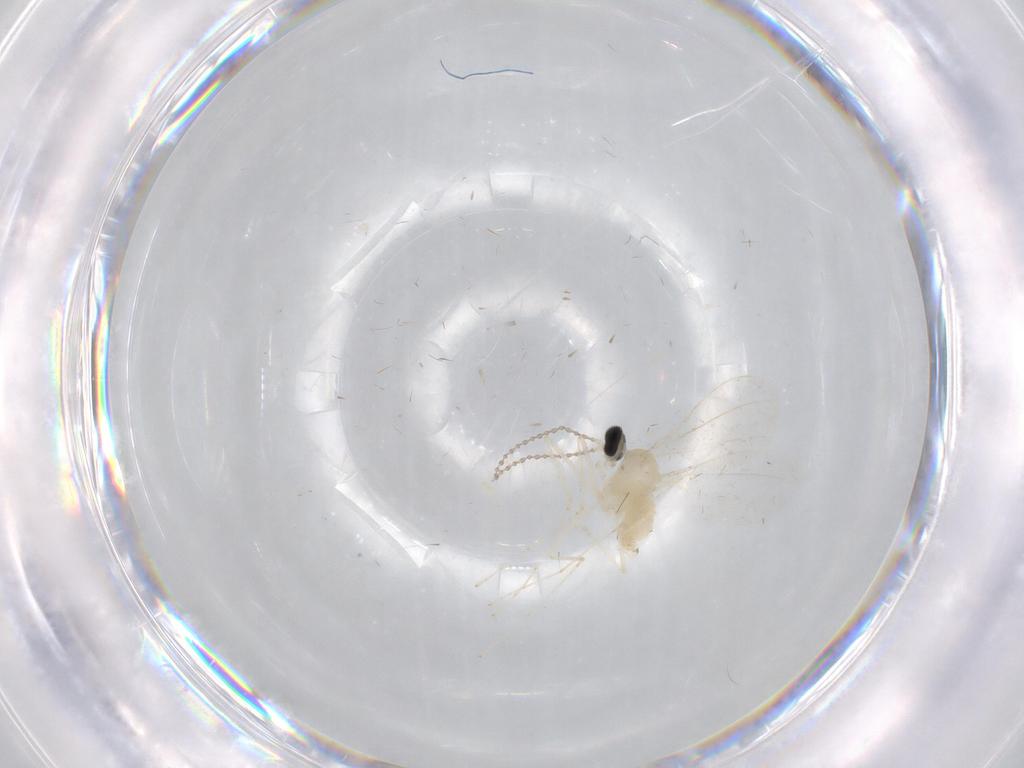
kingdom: Animalia
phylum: Arthropoda
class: Insecta
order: Diptera
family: Cecidomyiidae
